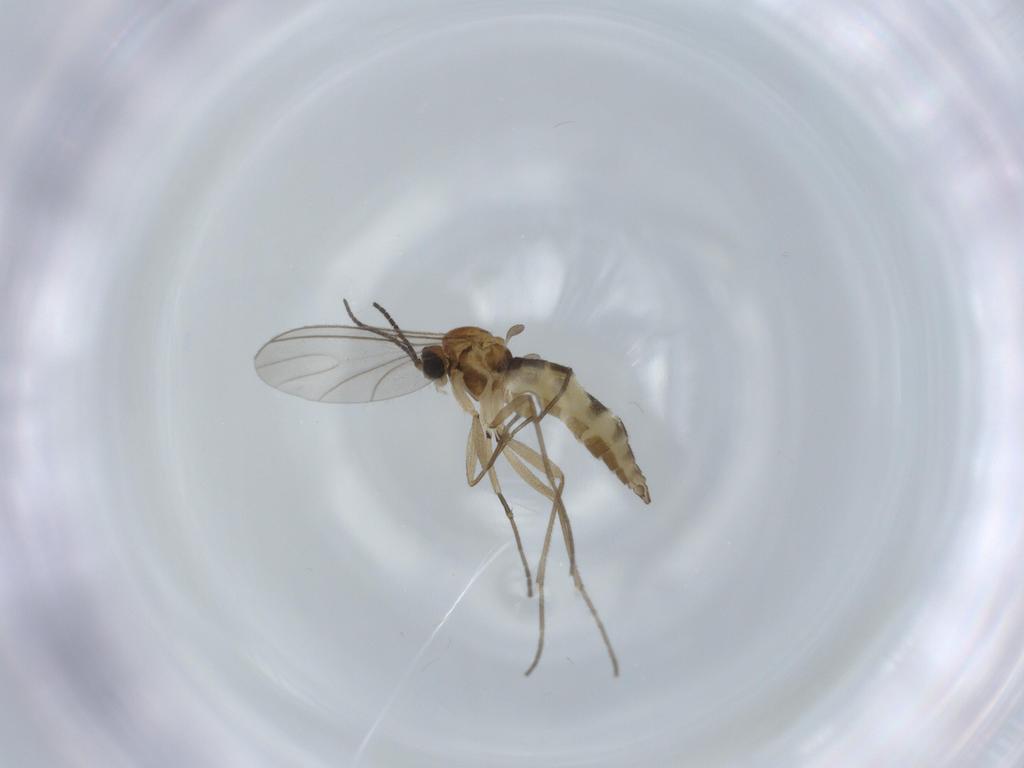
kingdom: Animalia
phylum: Arthropoda
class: Insecta
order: Diptera
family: Sciaridae
